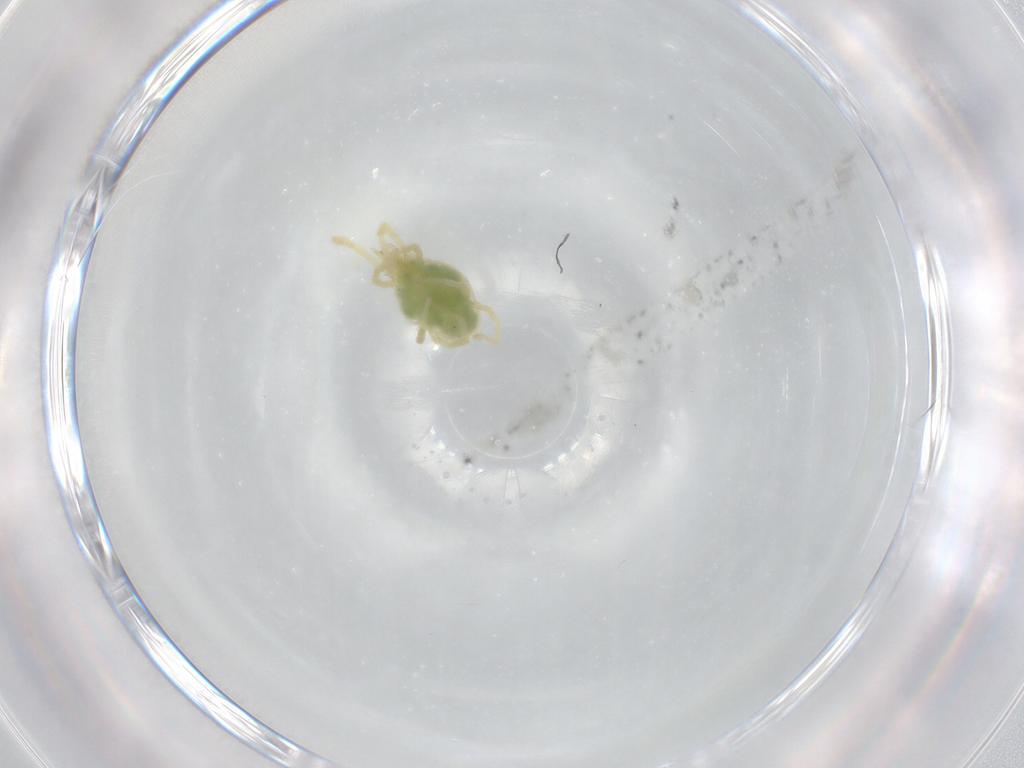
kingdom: Animalia
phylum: Arthropoda
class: Arachnida
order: Trombidiformes
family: Erythraeidae
